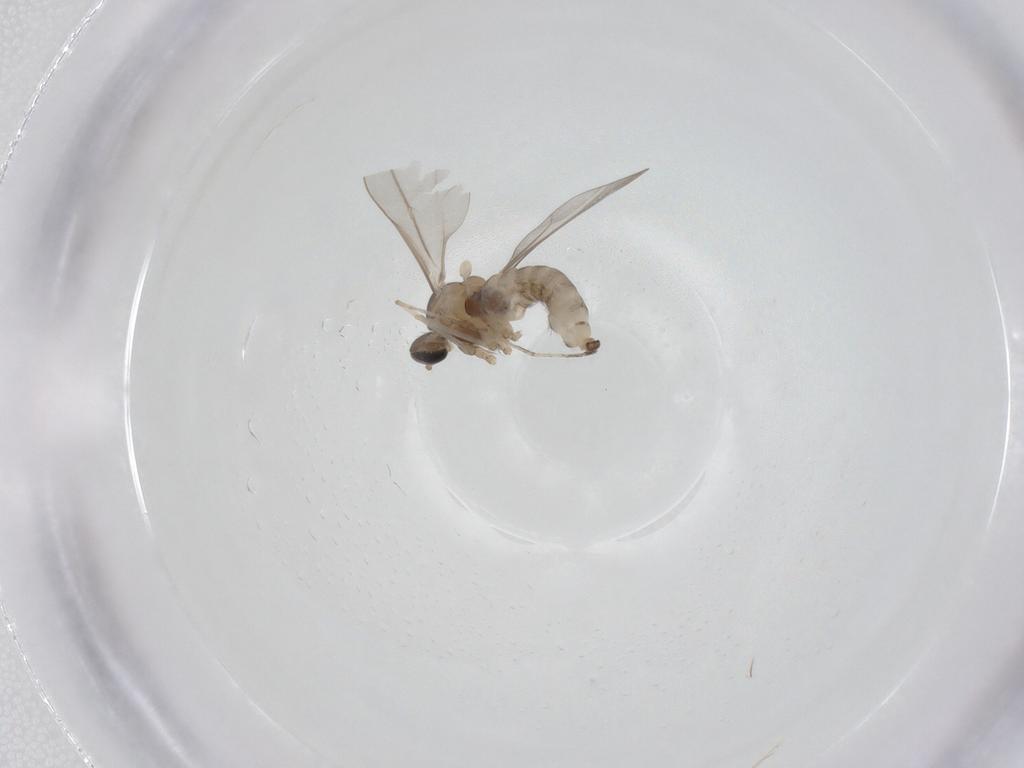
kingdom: Animalia
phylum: Arthropoda
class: Insecta
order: Diptera
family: Cecidomyiidae
